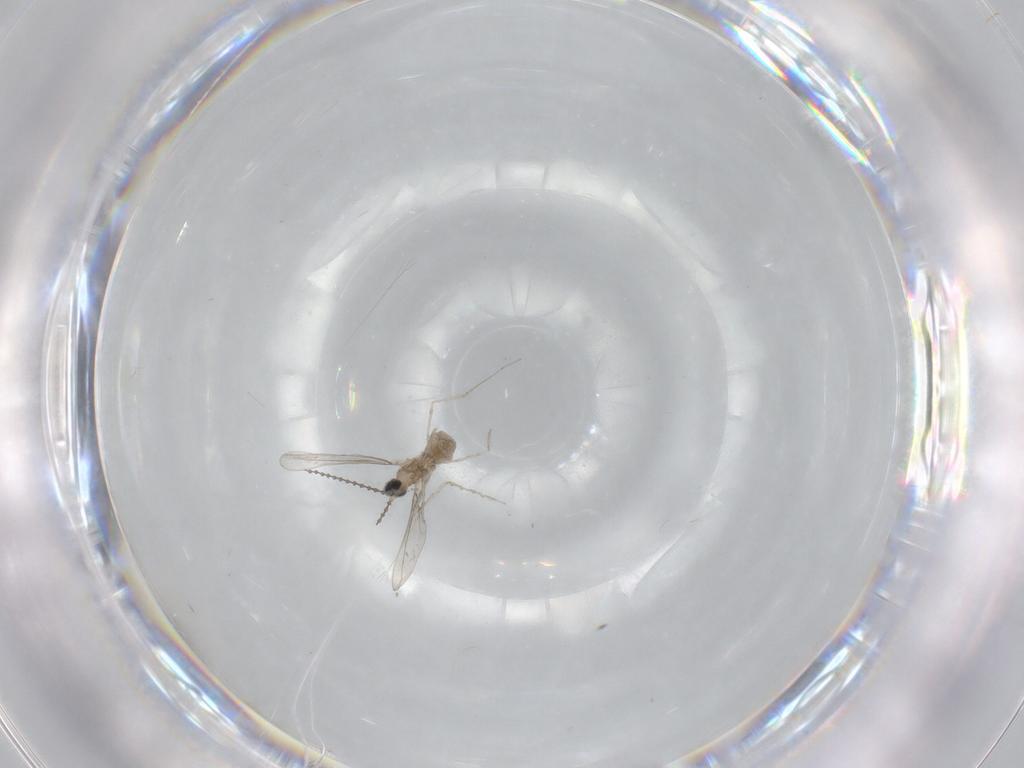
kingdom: Animalia
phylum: Arthropoda
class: Insecta
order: Diptera
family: Cecidomyiidae
